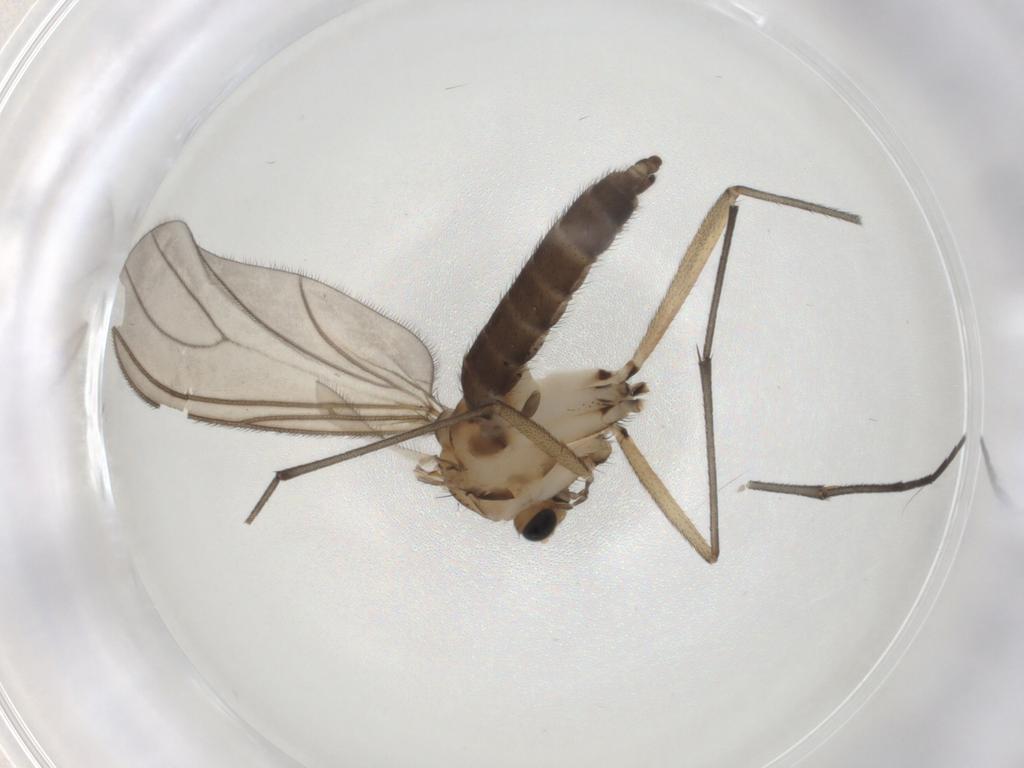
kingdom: Animalia
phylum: Arthropoda
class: Insecta
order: Diptera
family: Sciaridae
